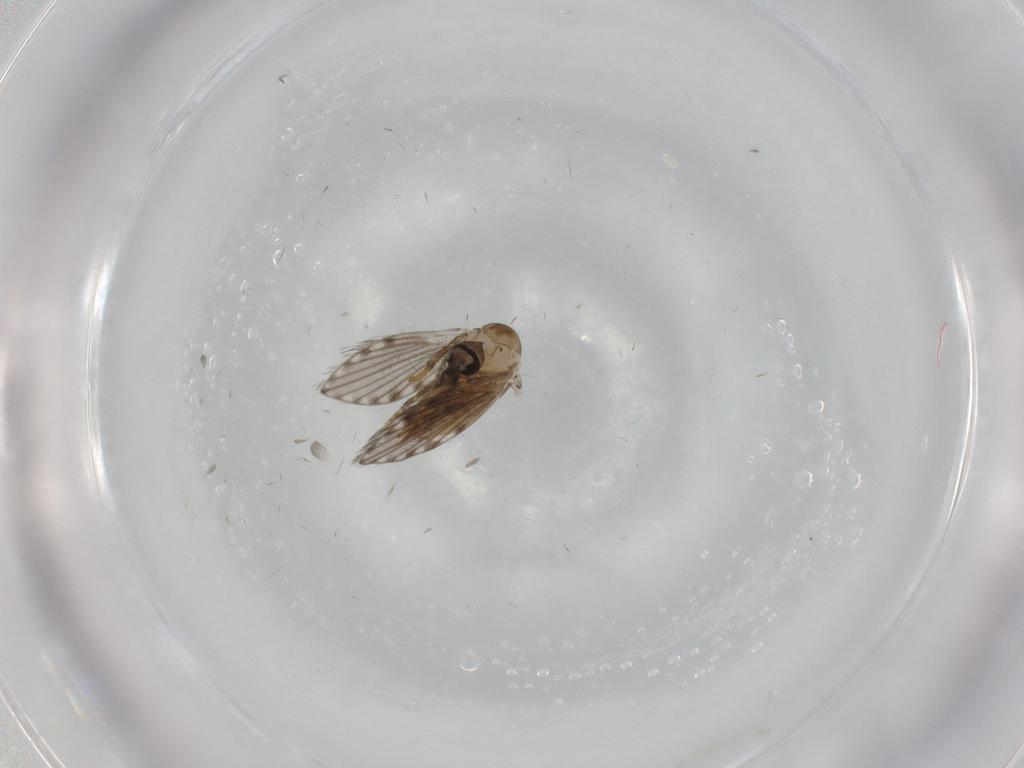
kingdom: Animalia
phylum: Arthropoda
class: Insecta
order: Diptera
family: Psychodidae
